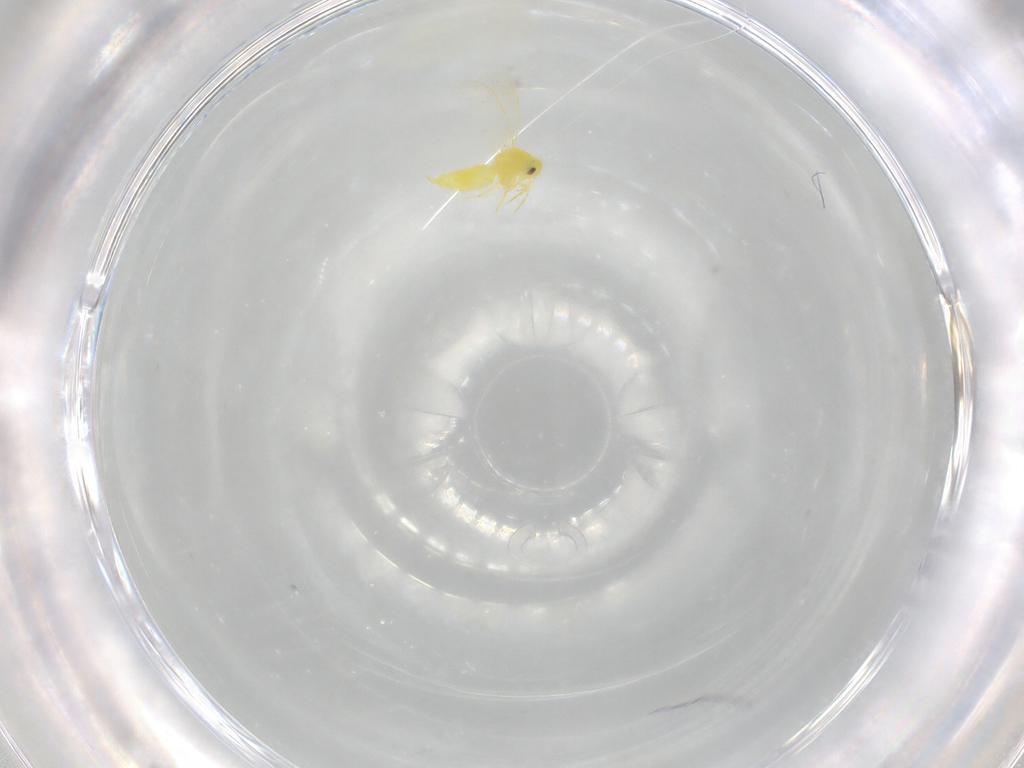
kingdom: Animalia
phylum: Arthropoda
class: Insecta
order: Hemiptera
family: Aleyrodidae
